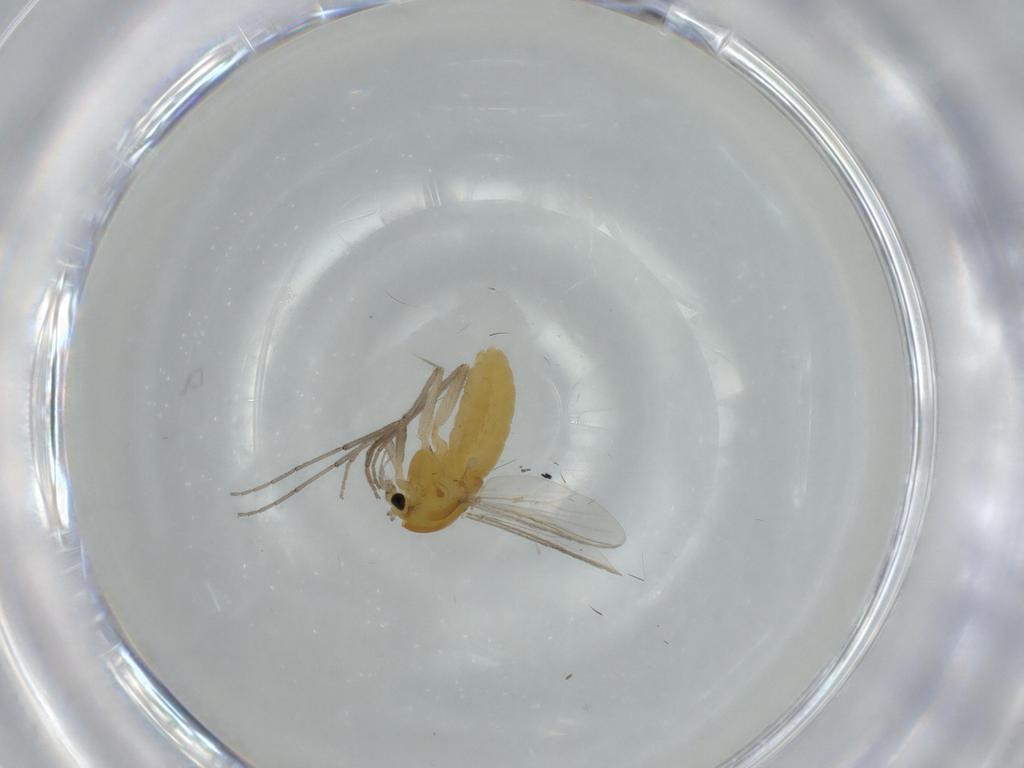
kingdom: Animalia
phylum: Arthropoda
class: Insecta
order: Diptera
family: Chironomidae
